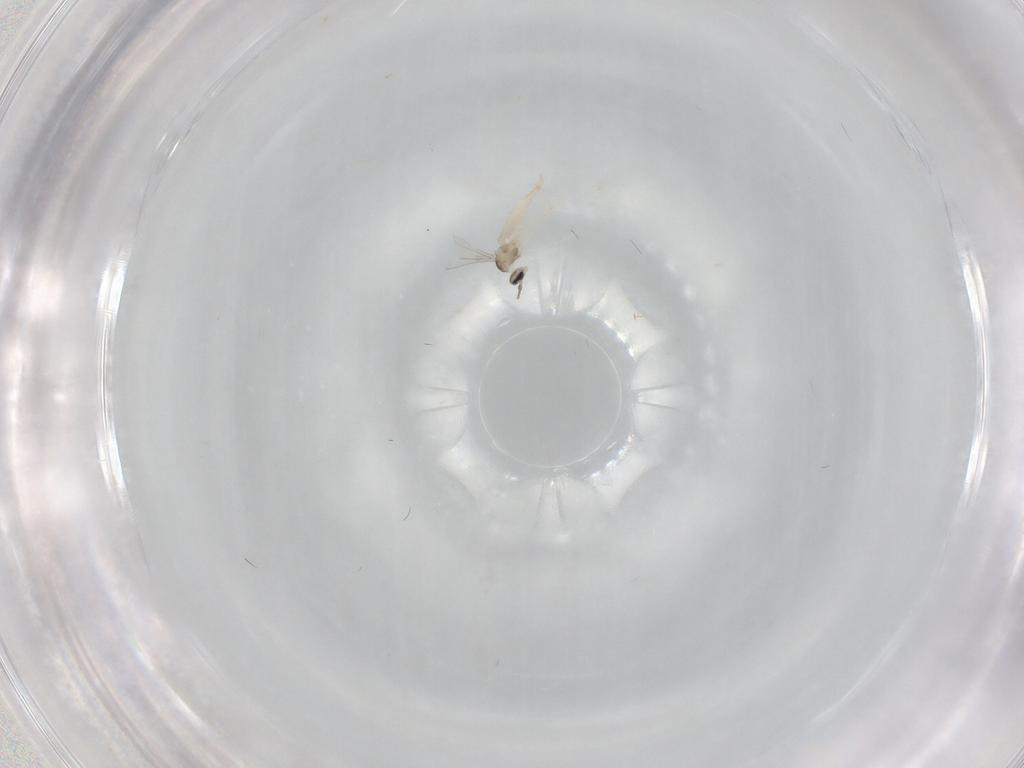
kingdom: Animalia
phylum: Arthropoda
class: Insecta
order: Diptera
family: Cecidomyiidae
